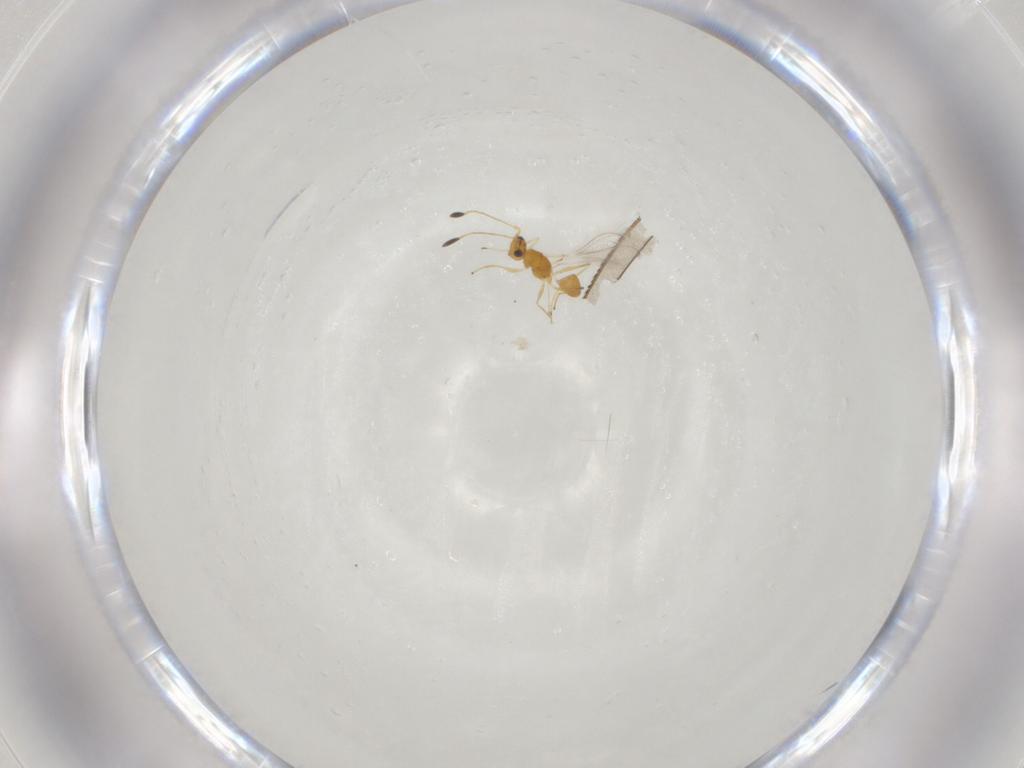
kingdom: Animalia
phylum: Arthropoda
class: Insecta
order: Hymenoptera
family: Mymaridae
